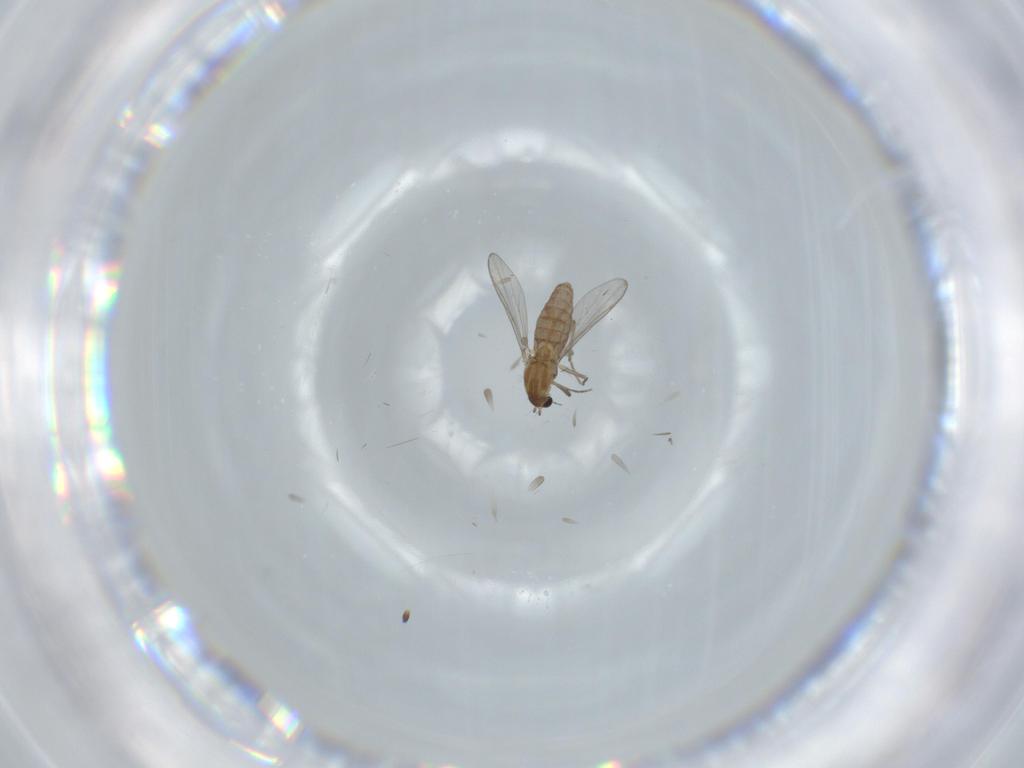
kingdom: Animalia
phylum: Arthropoda
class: Insecta
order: Diptera
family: Chironomidae
